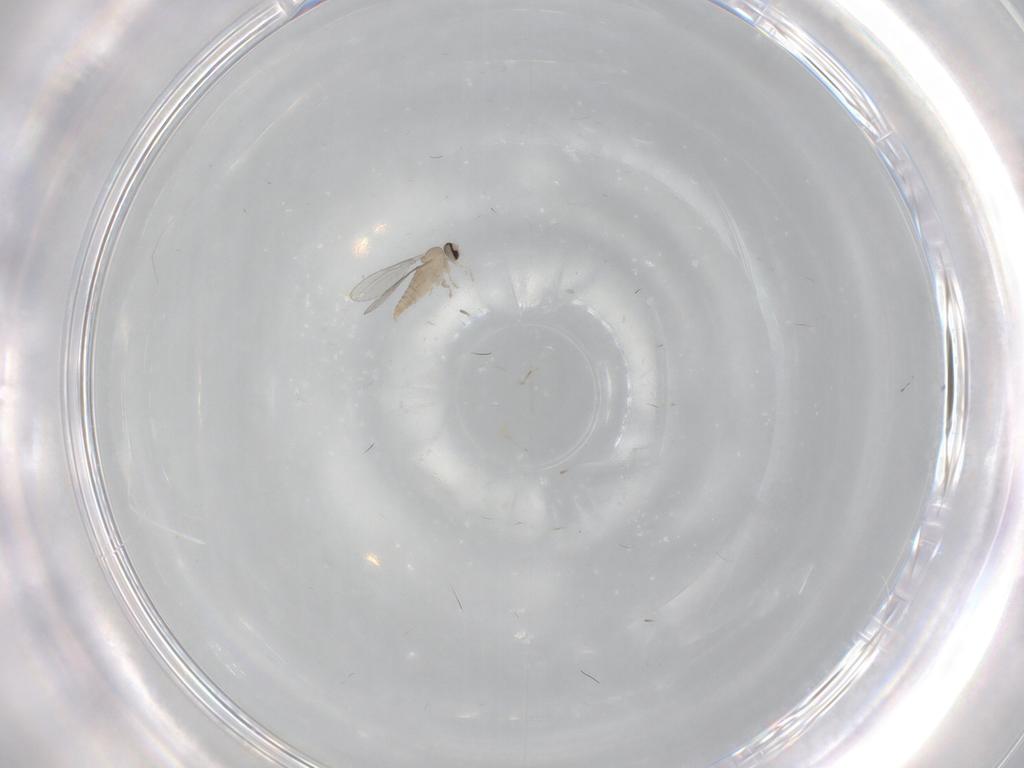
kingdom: Animalia
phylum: Arthropoda
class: Insecta
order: Diptera
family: Cecidomyiidae
